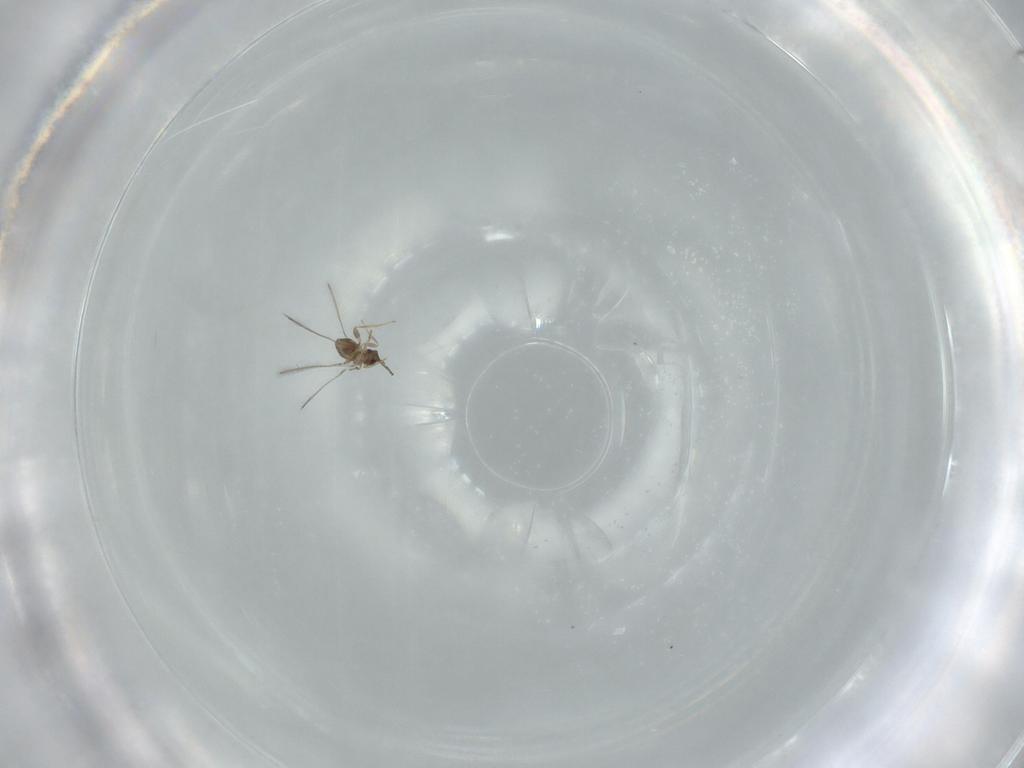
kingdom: Animalia
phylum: Arthropoda
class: Insecta
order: Hymenoptera
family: Mymaridae
